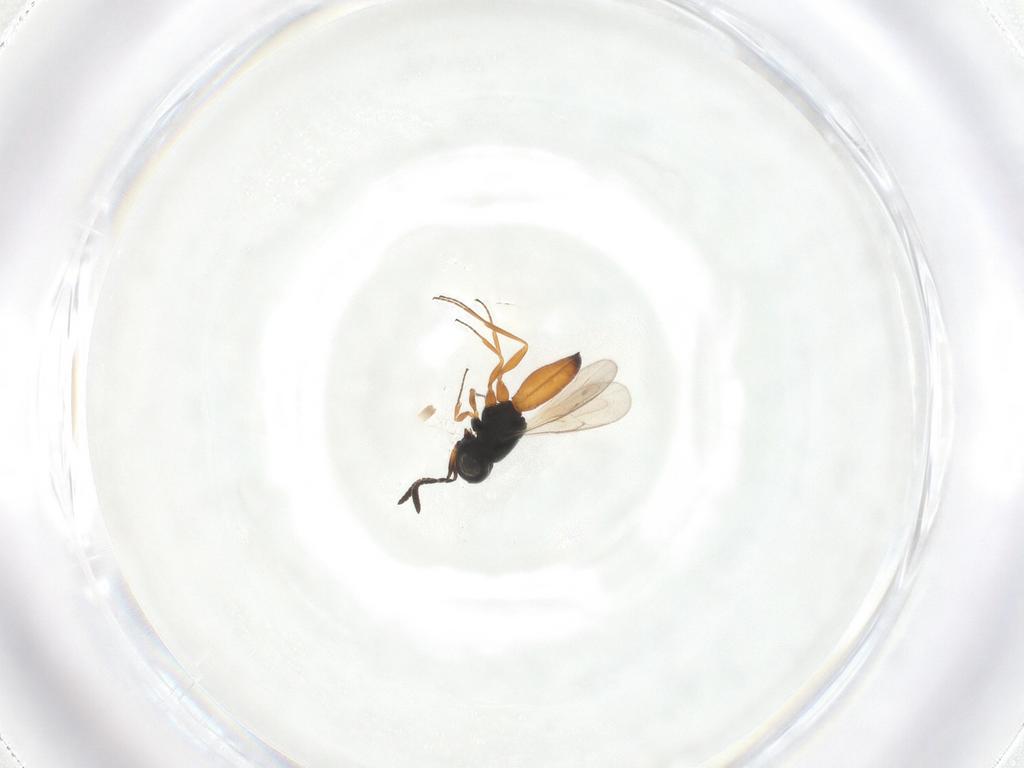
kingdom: Animalia
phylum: Arthropoda
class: Insecta
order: Hymenoptera
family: Scelionidae
